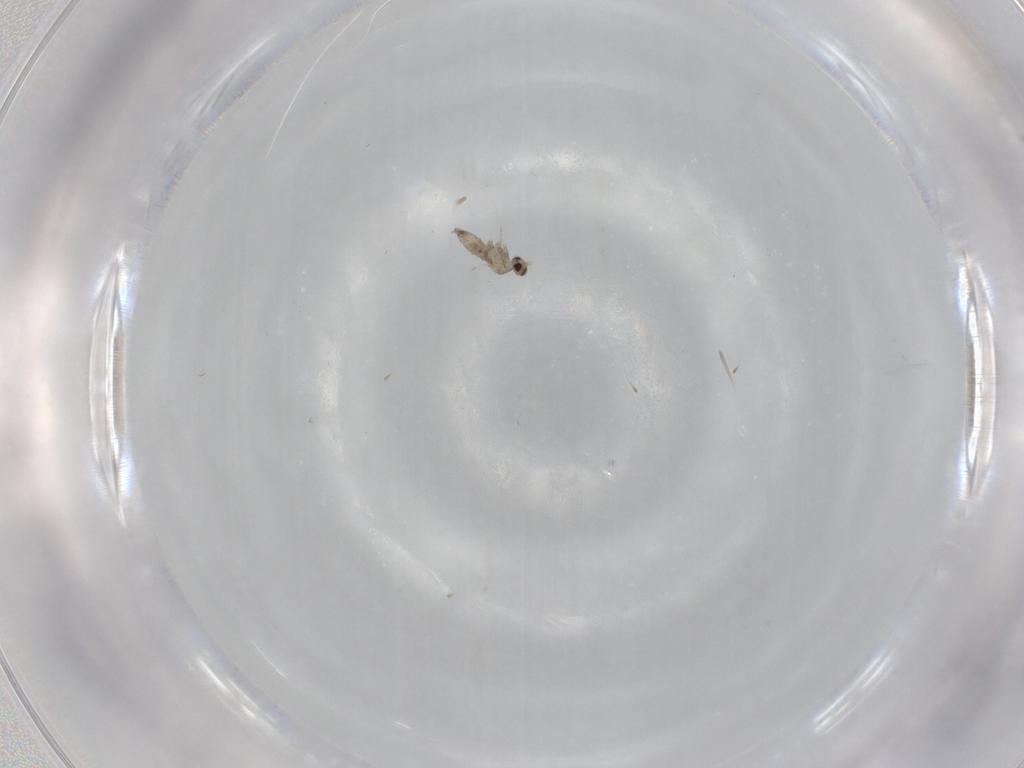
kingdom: Animalia
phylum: Arthropoda
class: Insecta
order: Diptera
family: Cecidomyiidae
